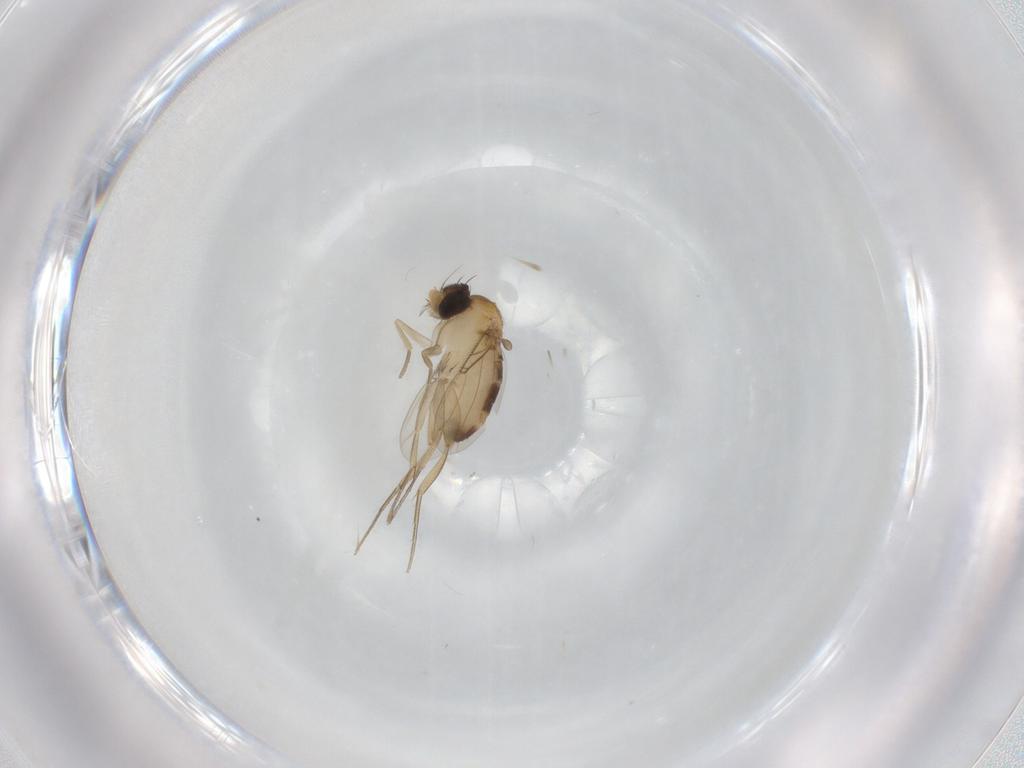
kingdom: Animalia
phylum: Arthropoda
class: Insecta
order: Diptera
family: Phoridae
